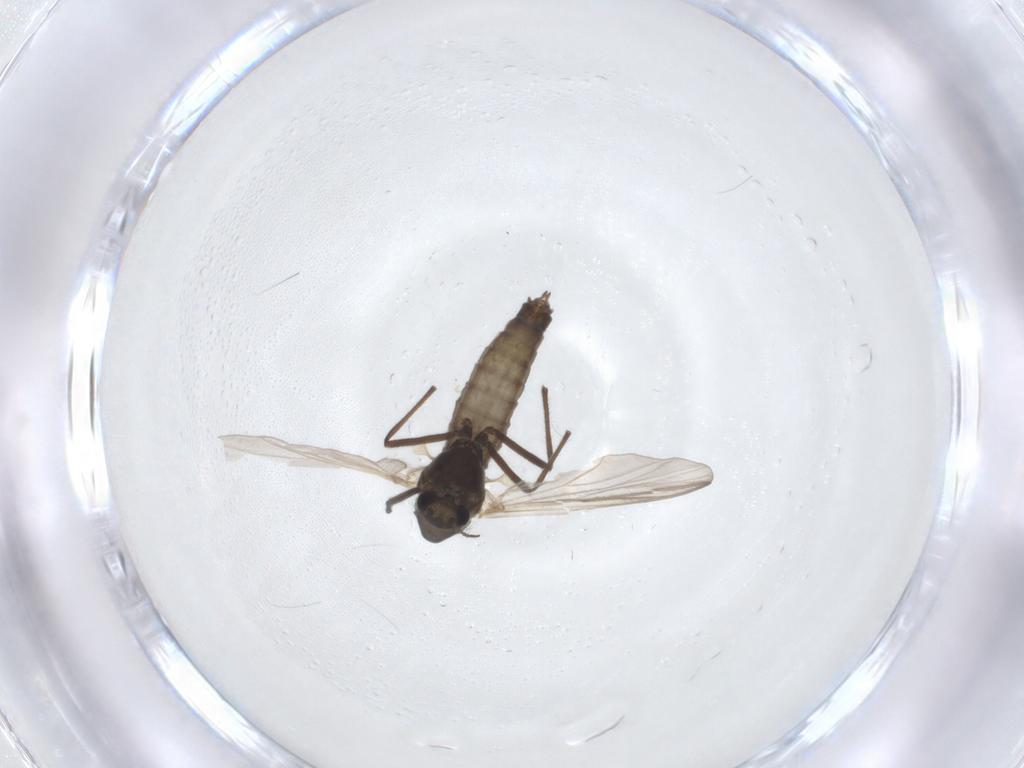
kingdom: Animalia
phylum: Arthropoda
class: Insecta
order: Diptera
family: Chironomidae
